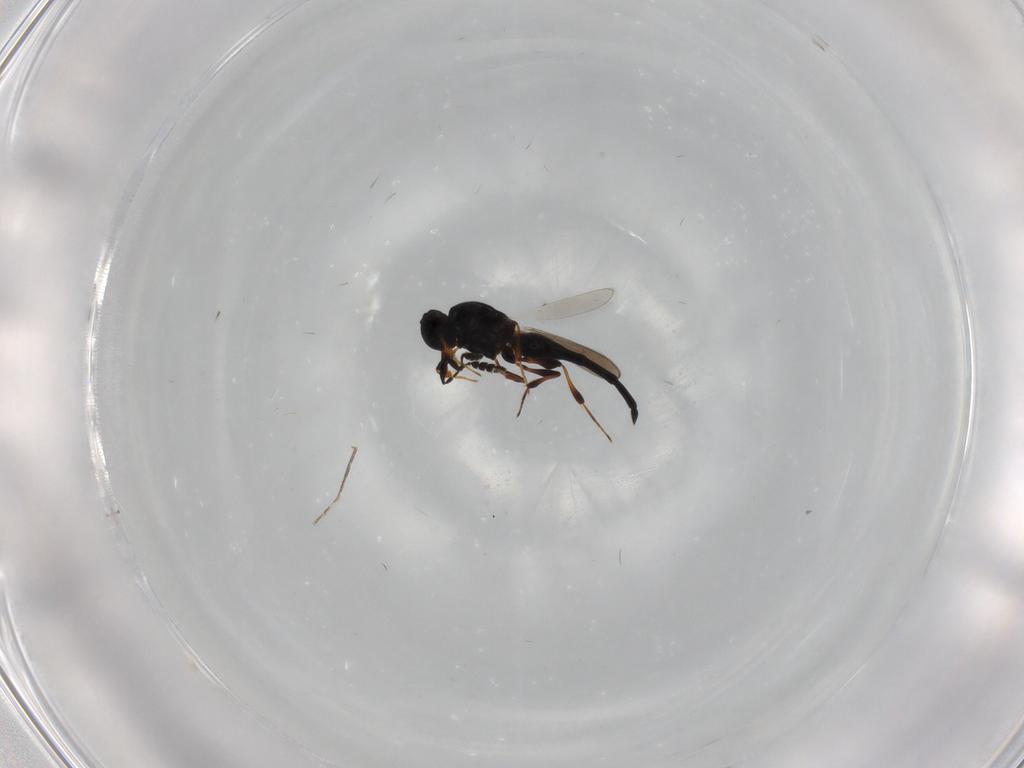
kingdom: Animalia
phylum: Arthropoda
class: Insecta
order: Hymenoptera
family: Platygastridae
